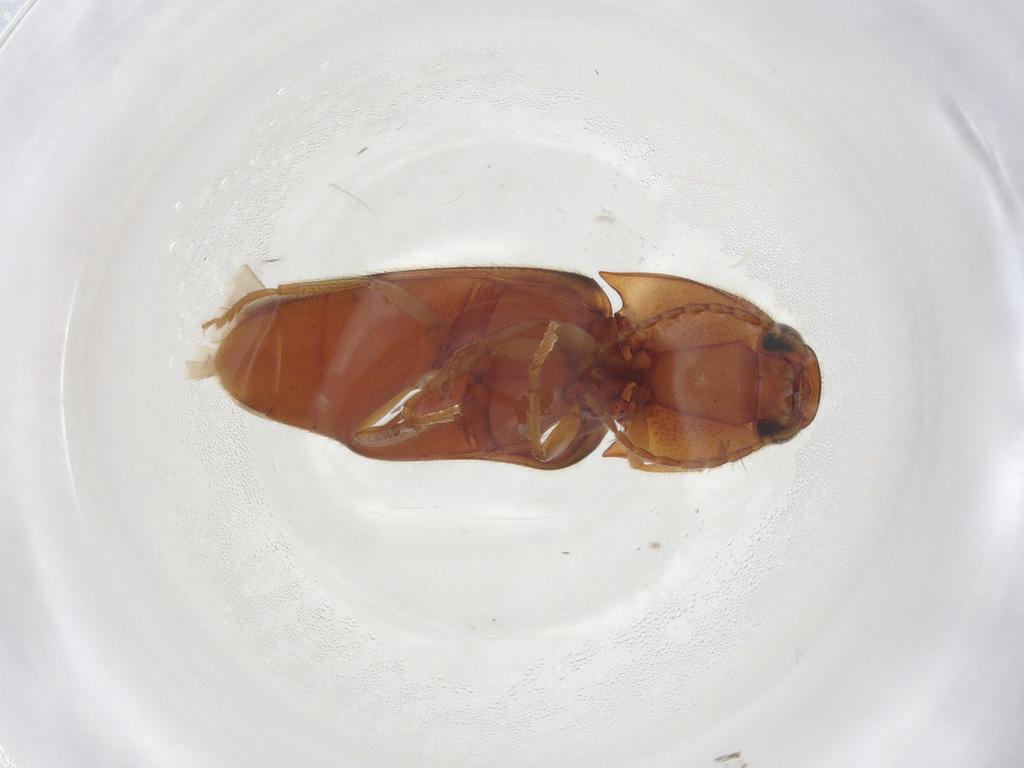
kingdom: Animalia
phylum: Arthropoda
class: Insecta
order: Coleoptera
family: Elateridae
